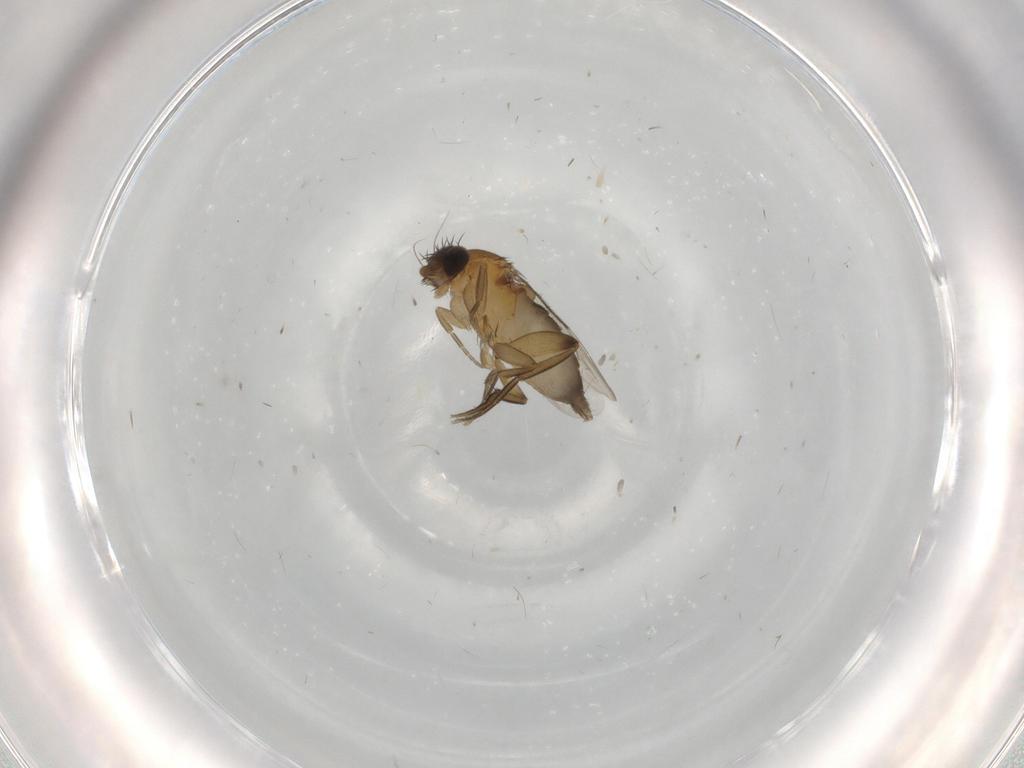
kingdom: Animalia
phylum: Arthropoda
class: Insecta
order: Diptera
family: Phoridae
